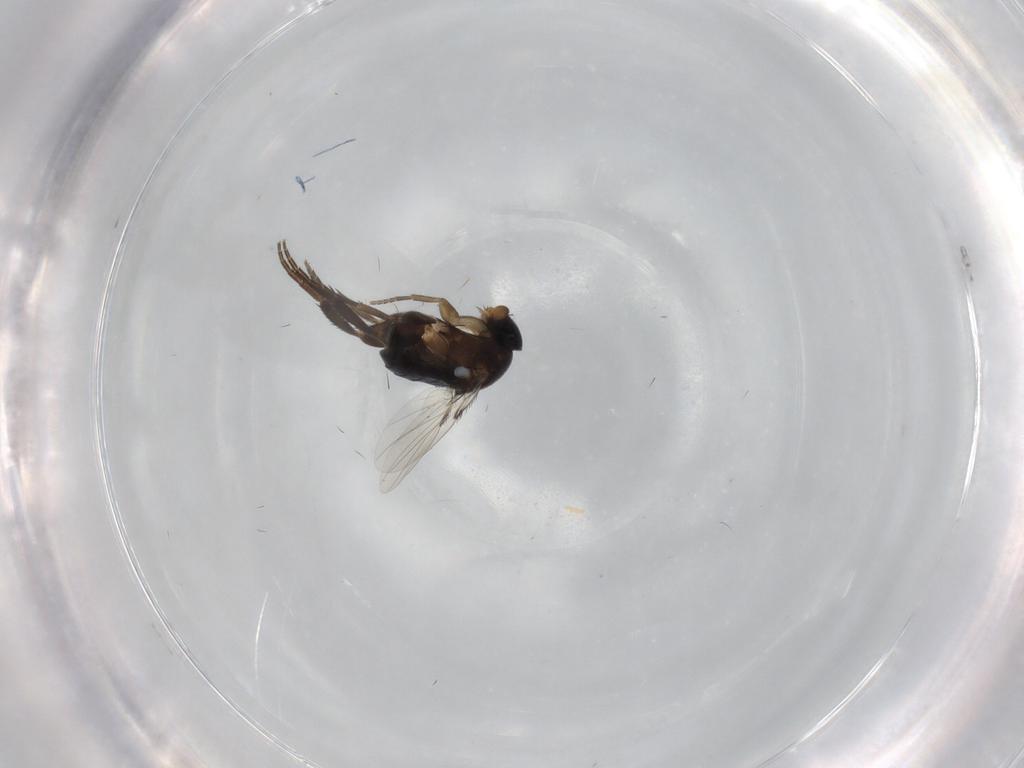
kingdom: Animalia
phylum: Arthropoda
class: Insecta
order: Diptera
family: Phoridae
